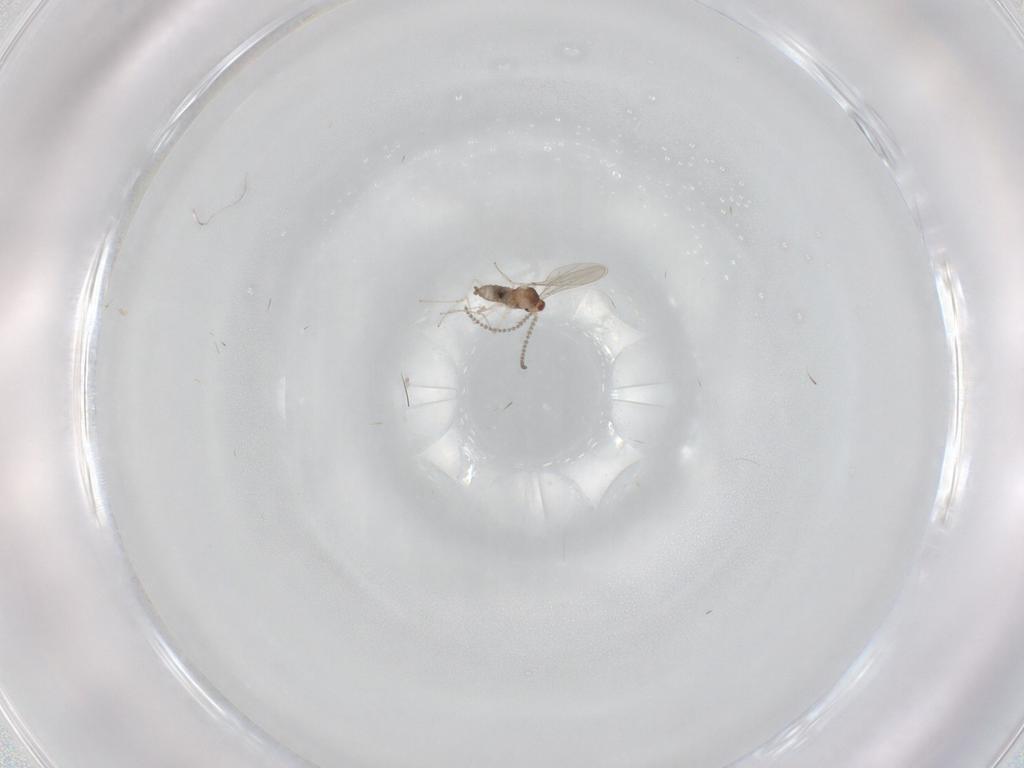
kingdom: Animalia
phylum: Arthropoda
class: Insecta
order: Diptera
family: Cecidomyiidae
